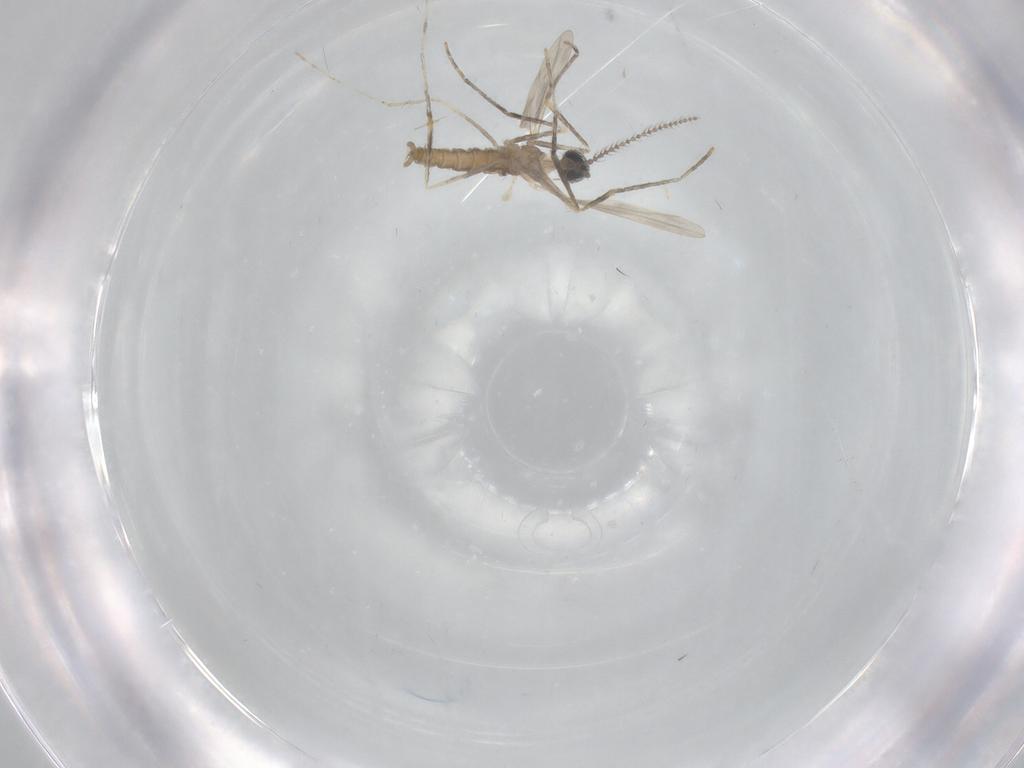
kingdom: Animalia
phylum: Arthropoda
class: Insecta
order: Diptera
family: Cecidomyiidae
